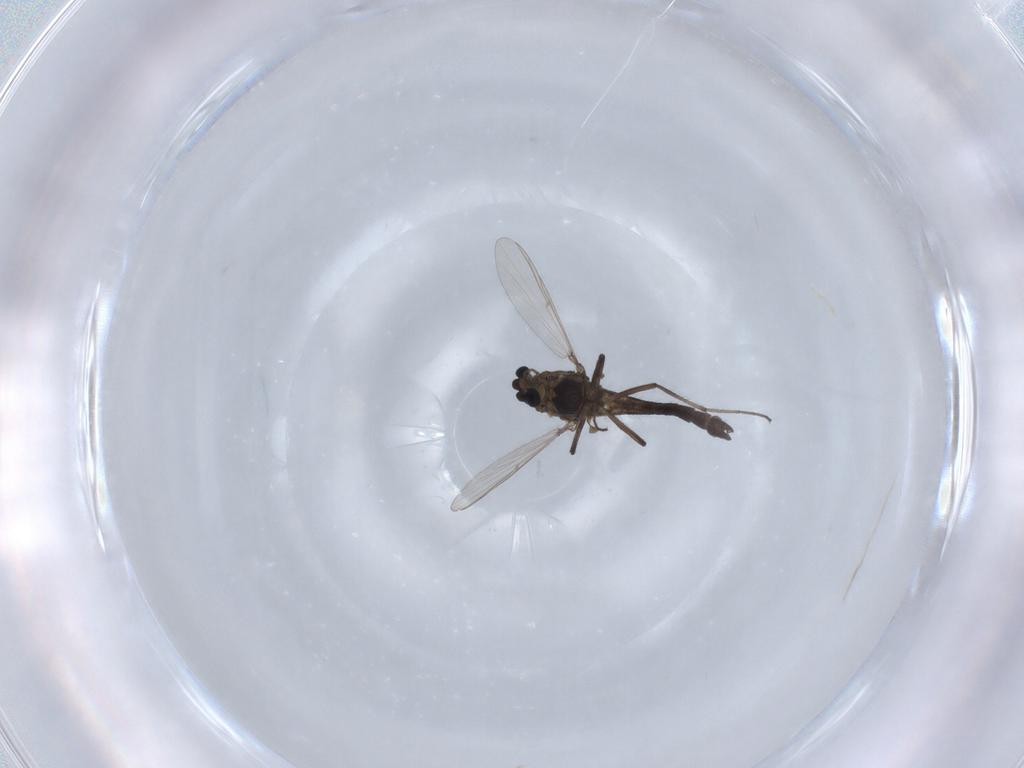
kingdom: Animalia
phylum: Arthropoda
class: Insecta
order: Diptera
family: Chironomidae
